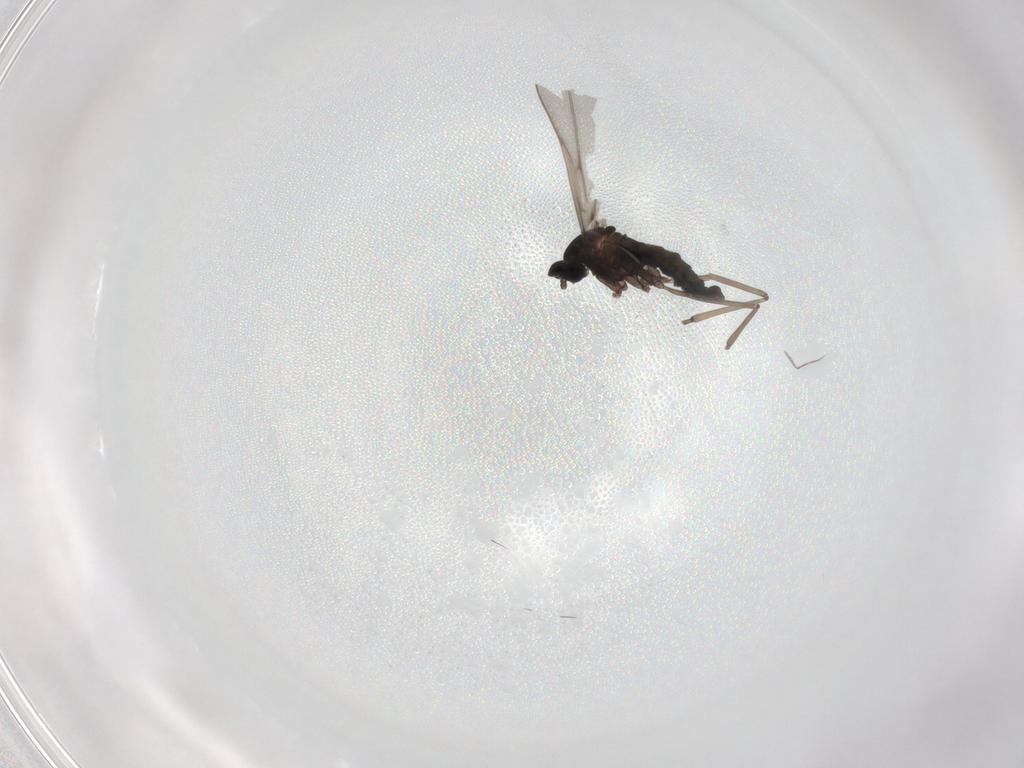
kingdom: Animalia
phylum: Arthropoda
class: Insecta
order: Diptera
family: Cecidomyiidae
